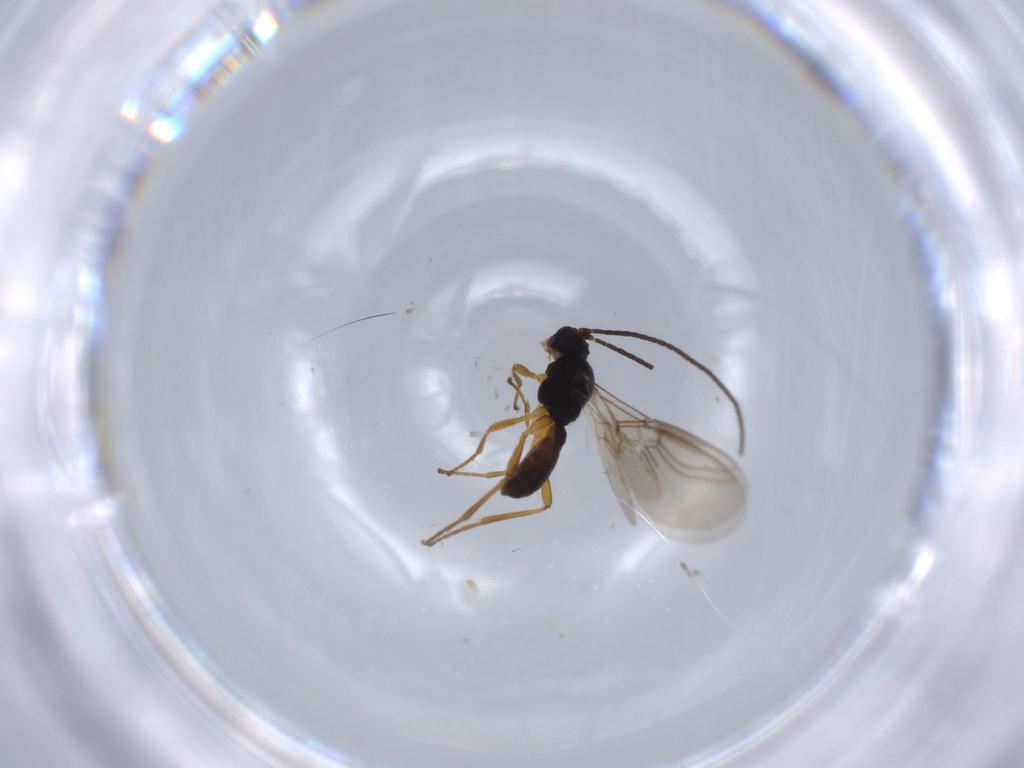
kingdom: Animalia
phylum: Arthropoda
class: Insecta
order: Hymenoptera
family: Braconidae
